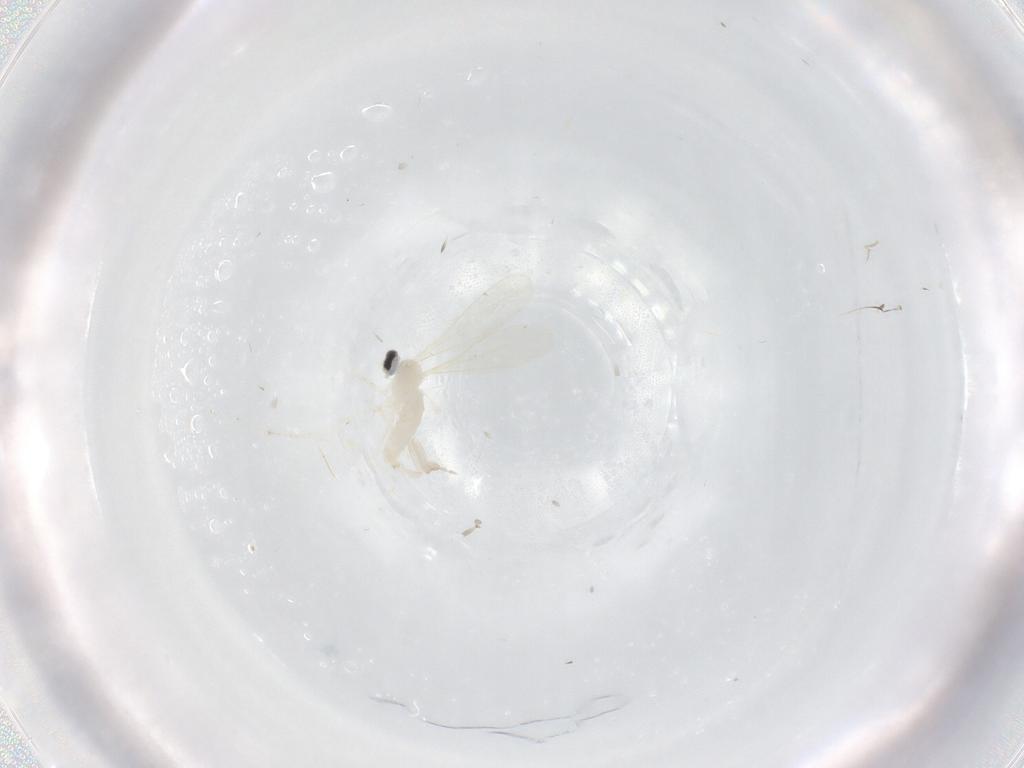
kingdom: Animalia
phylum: Arthropoda
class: Insecta
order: Diptera
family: Cecidomyiidae
